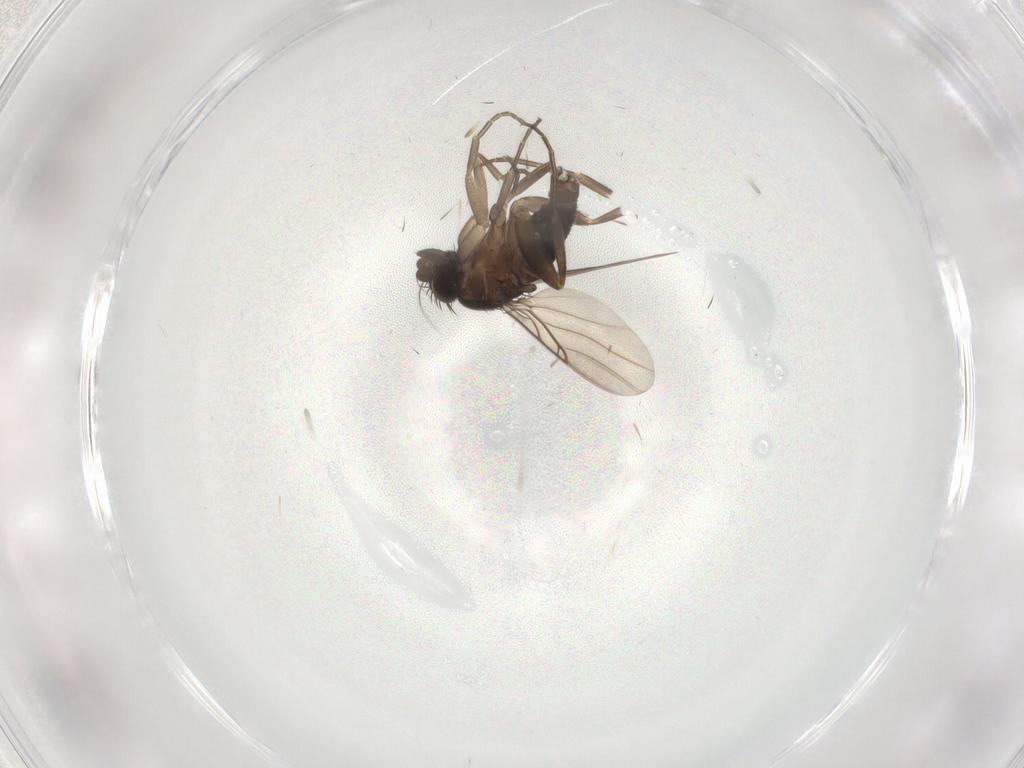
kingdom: Animalia
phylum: Arthropoda
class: Insecta
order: Diptera
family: Phoridae
